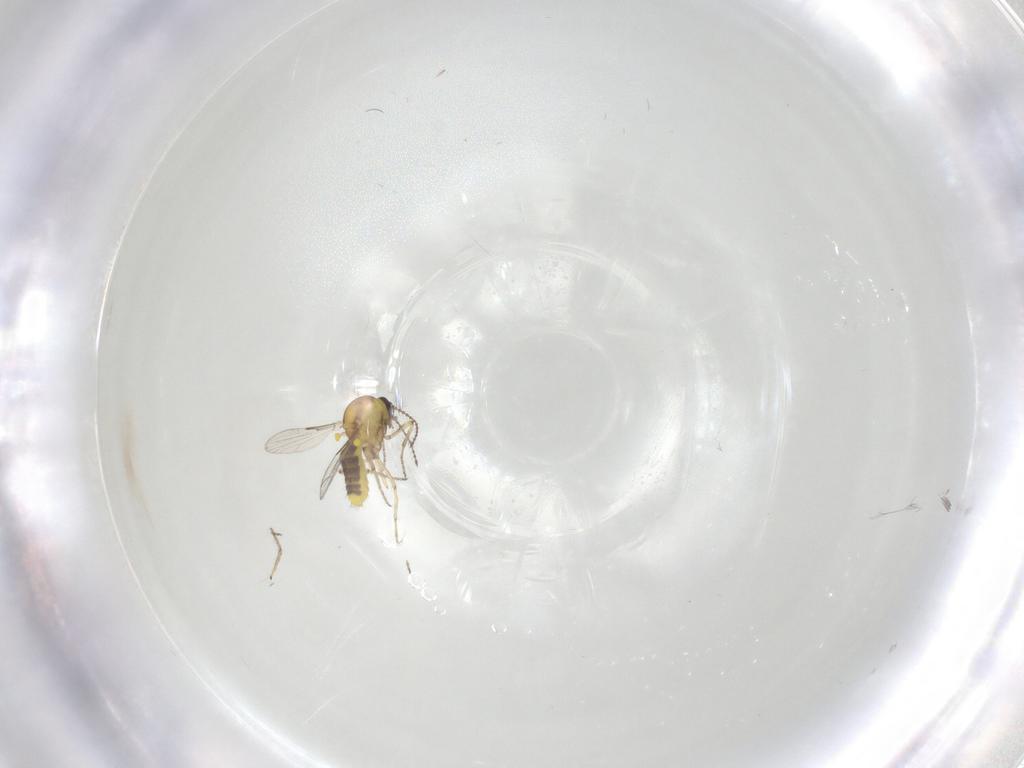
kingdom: Animalia
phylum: Arthropoda
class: Insecta
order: Diptera
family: Ceratopogonidae
